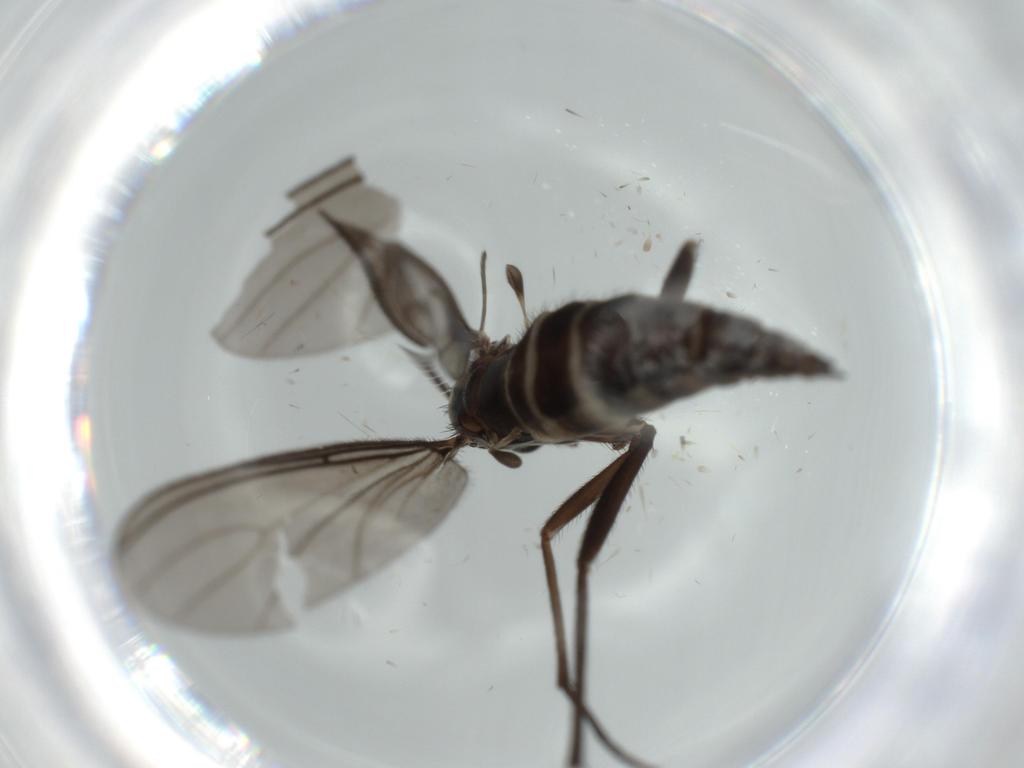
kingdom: Animalia
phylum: Arthropoda
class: Insecta
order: Diptera
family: Sciaridae
